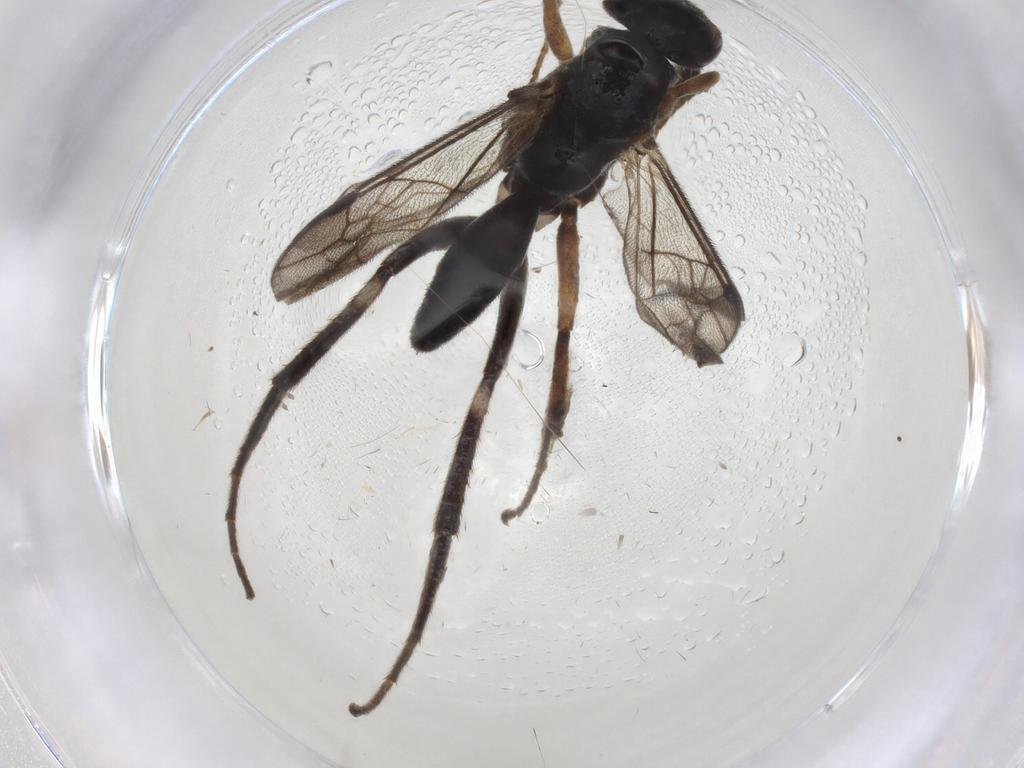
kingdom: Animalia
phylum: Arthropoda
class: Insecta
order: Hymenoptera
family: Pompilidae
